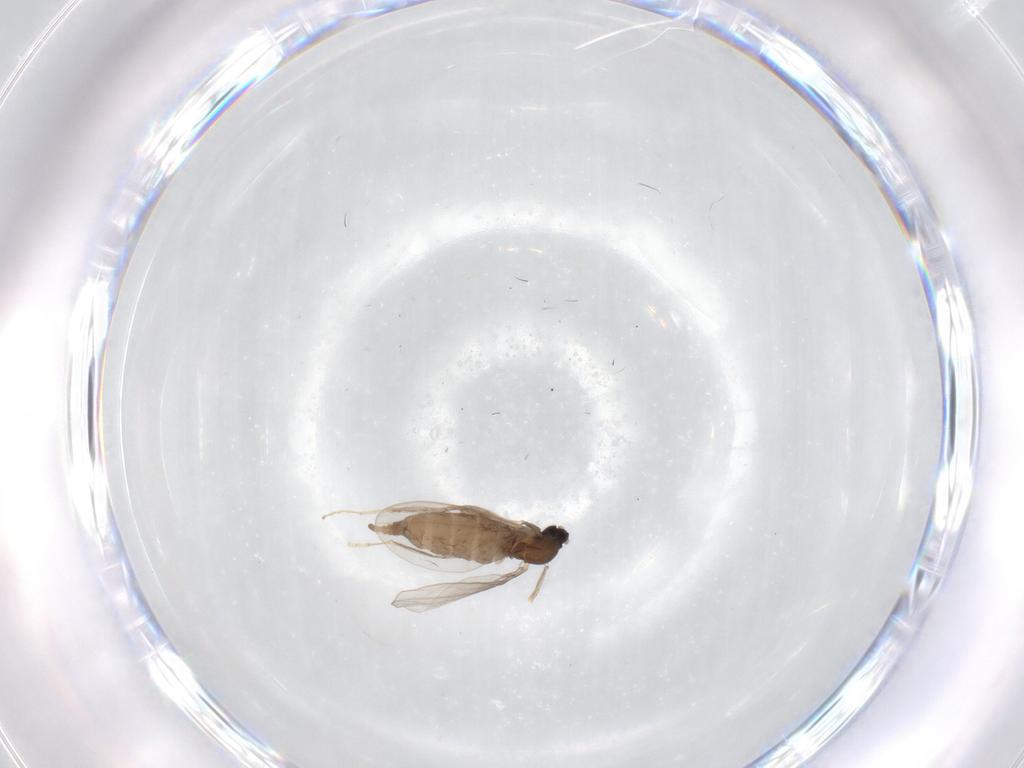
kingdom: Animalia
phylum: Arthropoda
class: Insecta
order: Diptera
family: Cecidomyiidae
